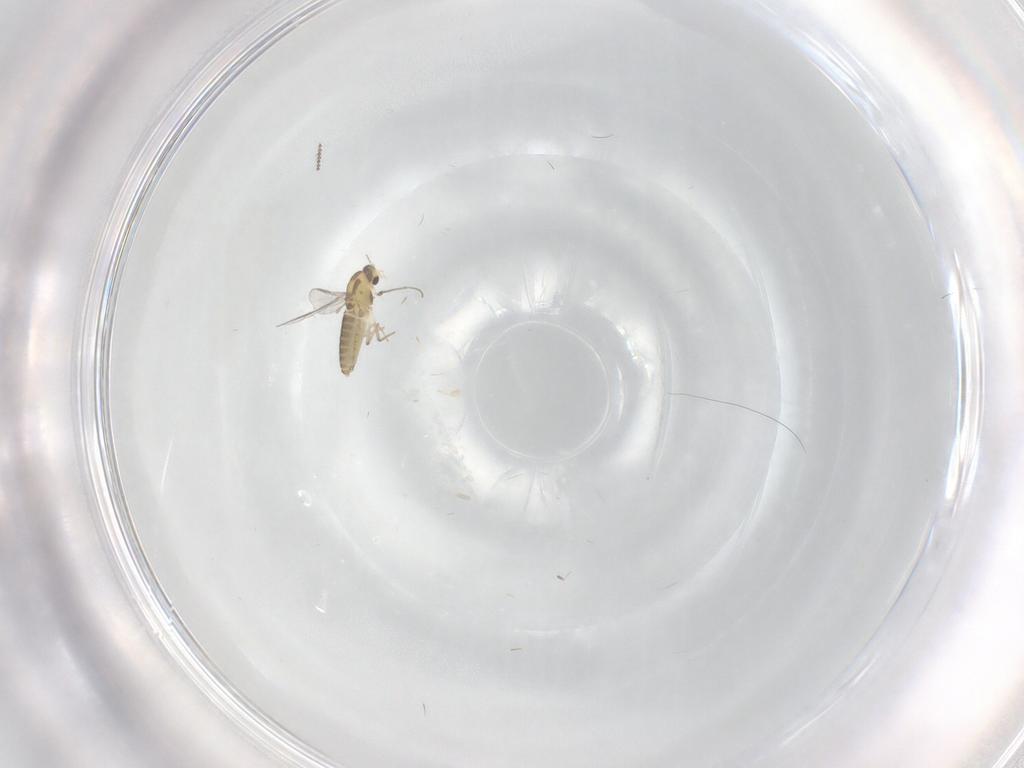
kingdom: Animalia
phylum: Arthropoda
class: Insecta
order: Diptera
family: Chironomidae
